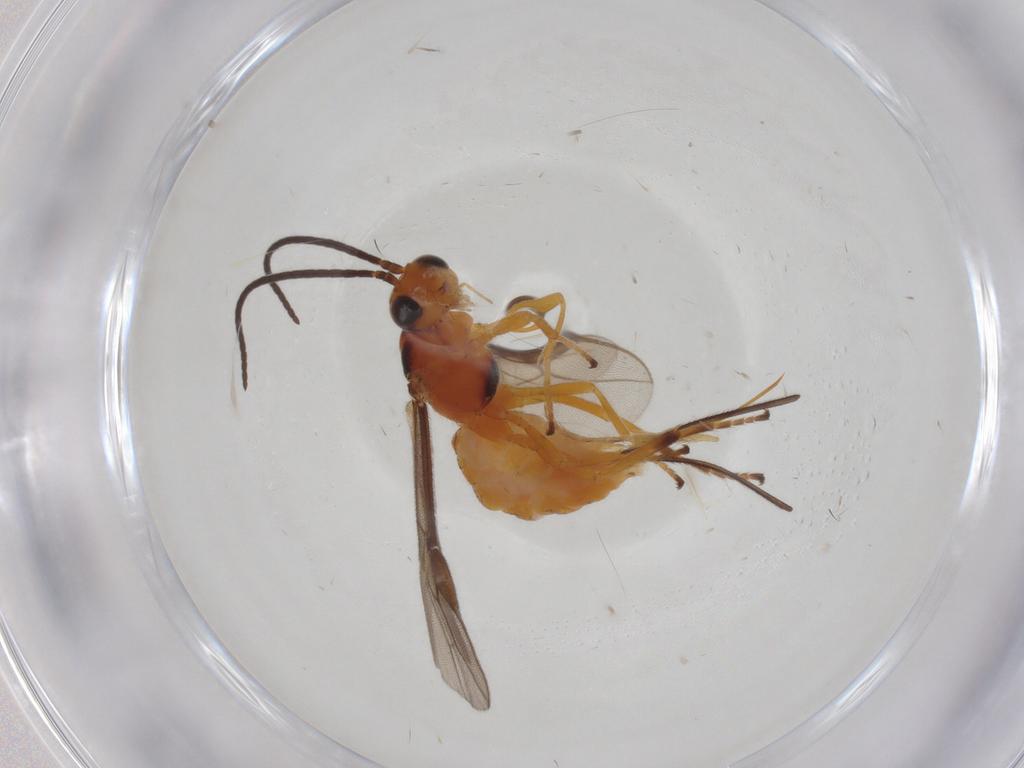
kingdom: Animalia
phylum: Arthropoda
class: Insecta
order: Hymenoptera
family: Braconidae
